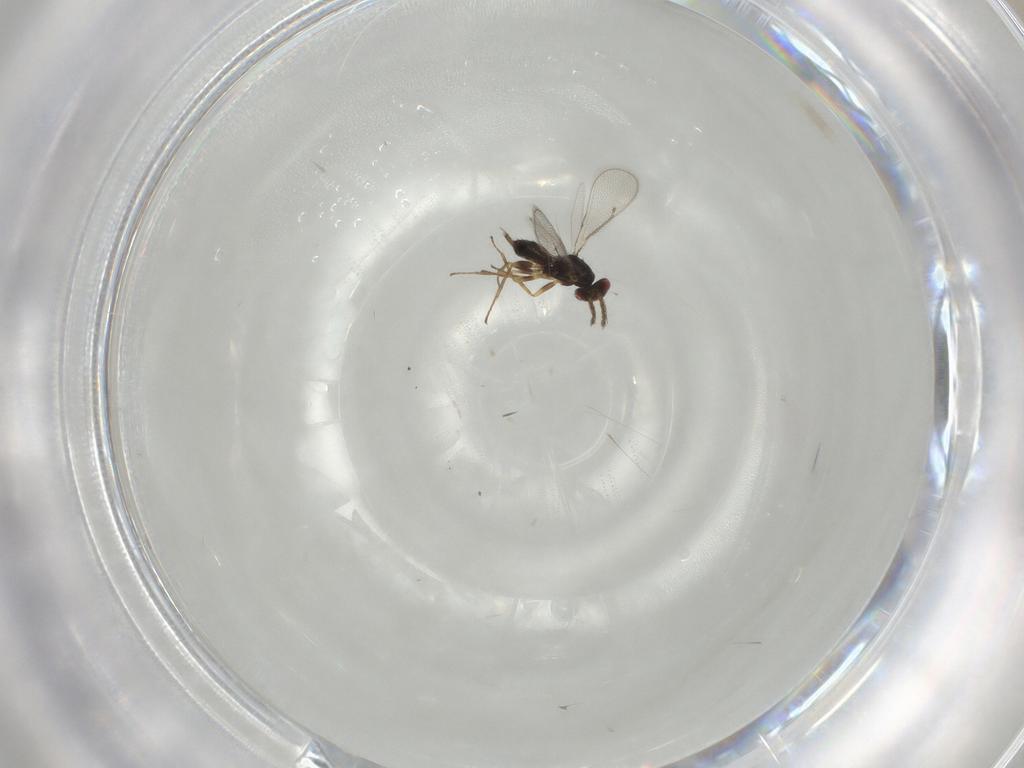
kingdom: Animalia
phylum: Arthropoda
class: Insecta
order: Hymenoptera
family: Eulophidae
